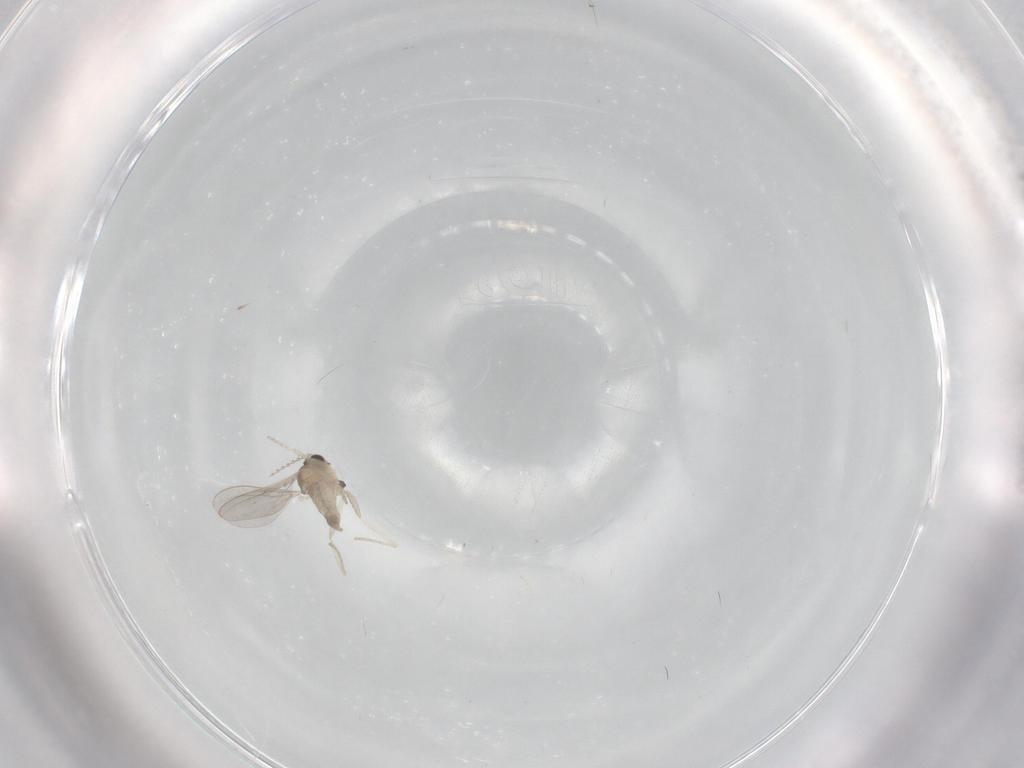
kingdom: Animalia
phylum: Arthropoda
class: Insecta
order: Diptera
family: Cecidomyiidae
